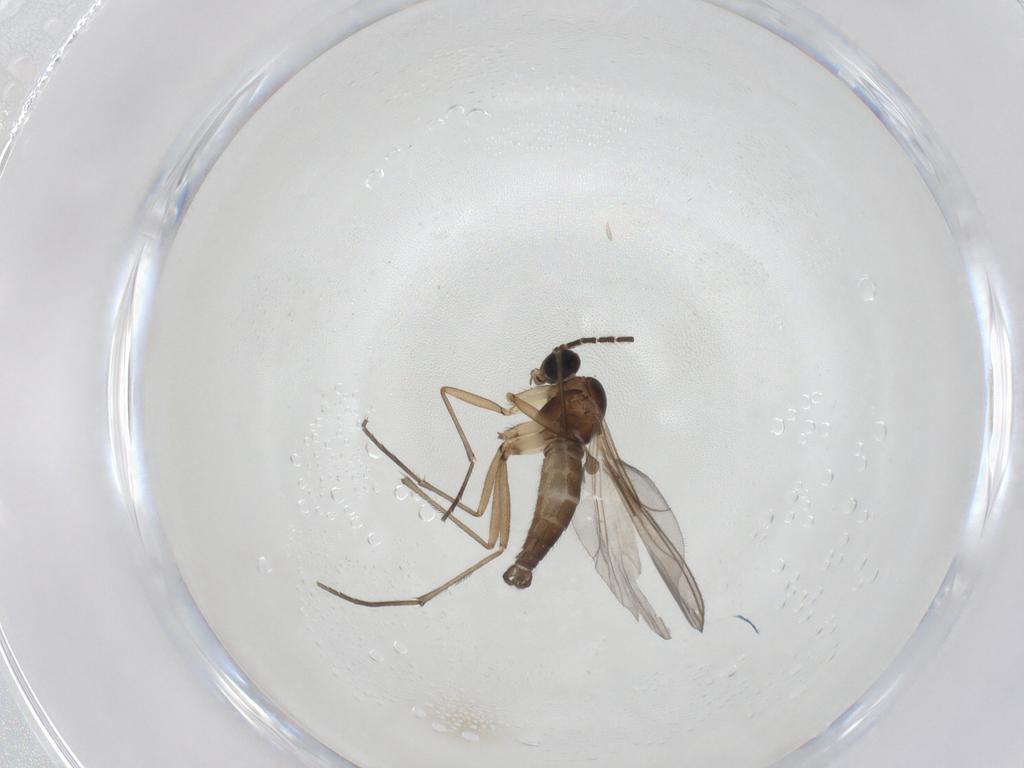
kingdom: Animalia
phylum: Arthropoda
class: Insecta
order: Diptera
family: Sciaridae
